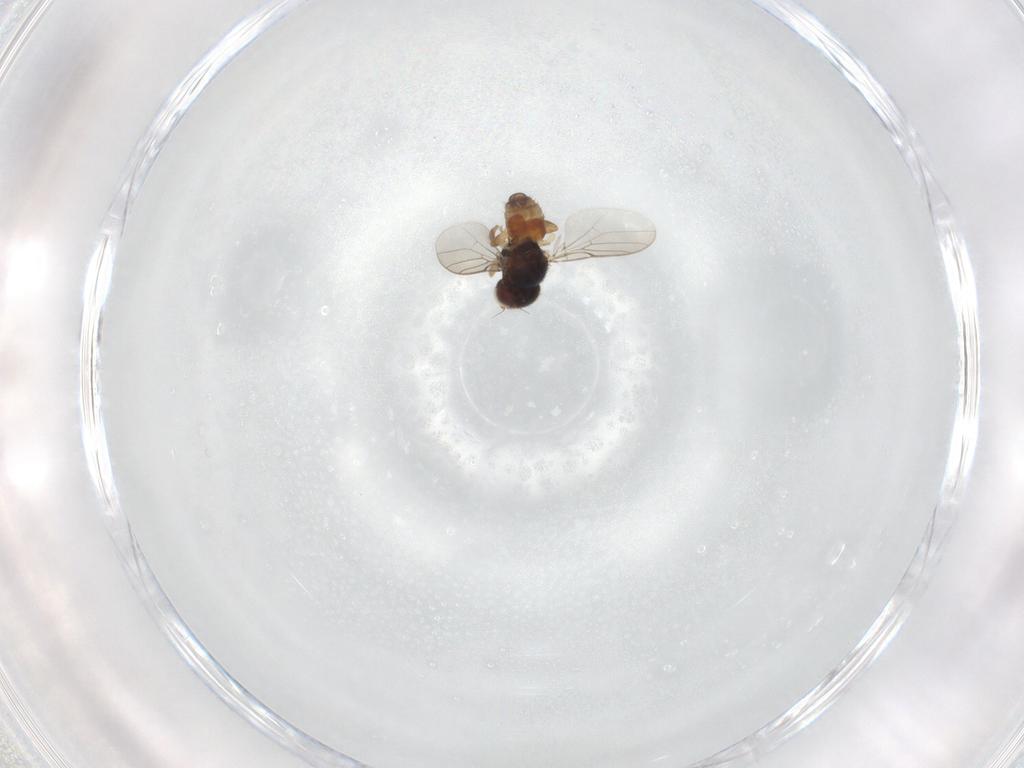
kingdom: Animalia
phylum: Arthropoda
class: Insecta
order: Diptera
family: Chloropidae
